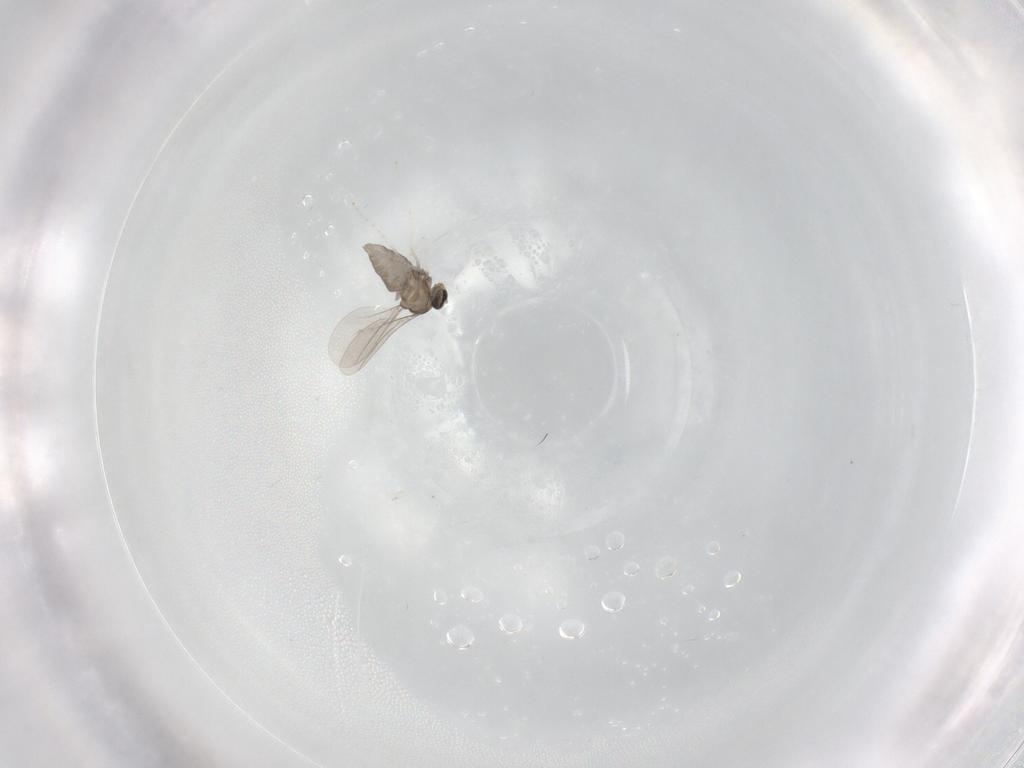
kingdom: Animalia
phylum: Arthropoda
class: Insecta
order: Diptera
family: Cecidomyiidae
